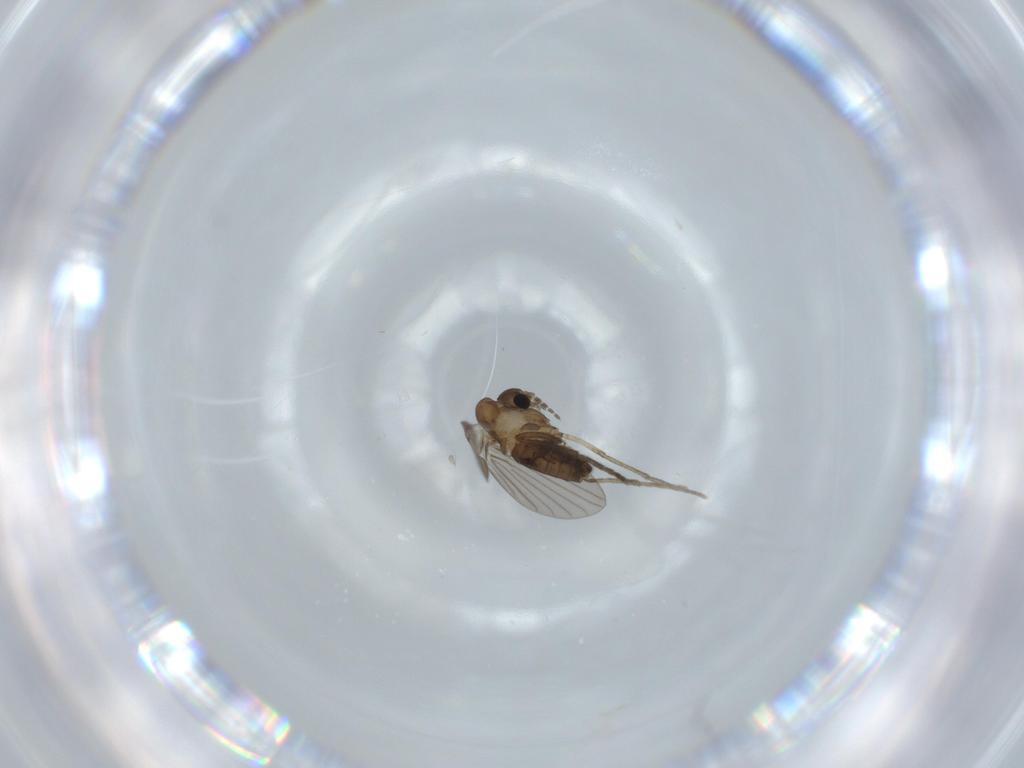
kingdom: Animalia
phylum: Arthropoda
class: Insecta
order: Diptera
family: Psychodidae
